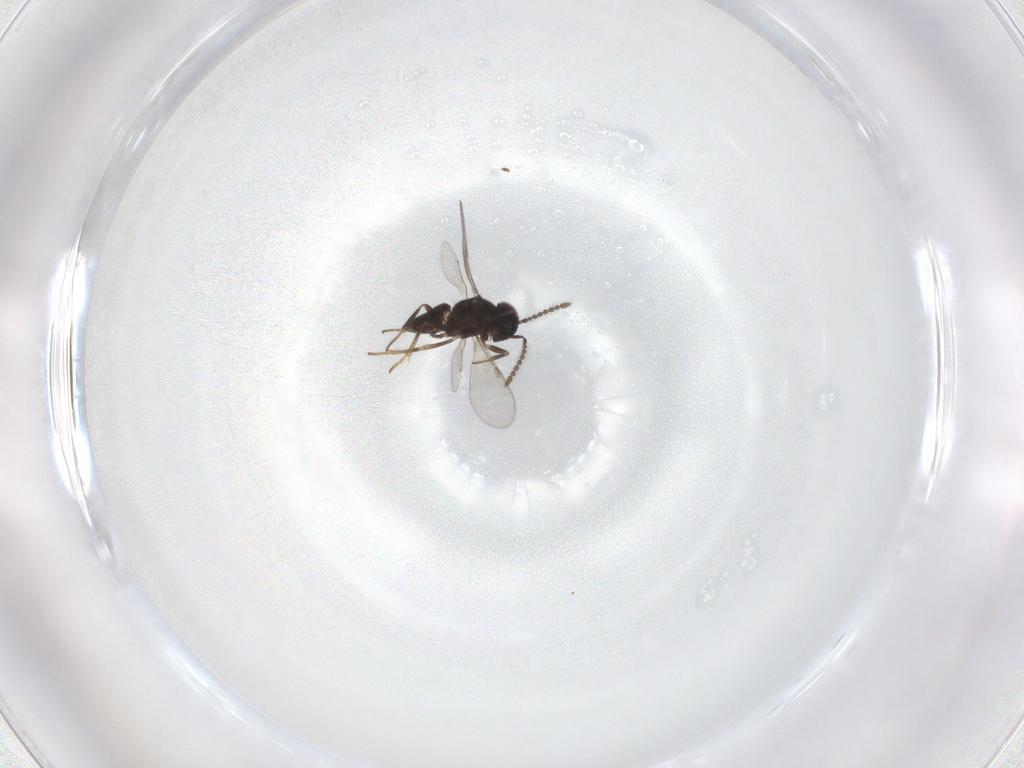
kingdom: Animalia
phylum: Arthropoda
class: Insecta
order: Hymenoptera
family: Encyrtidae
